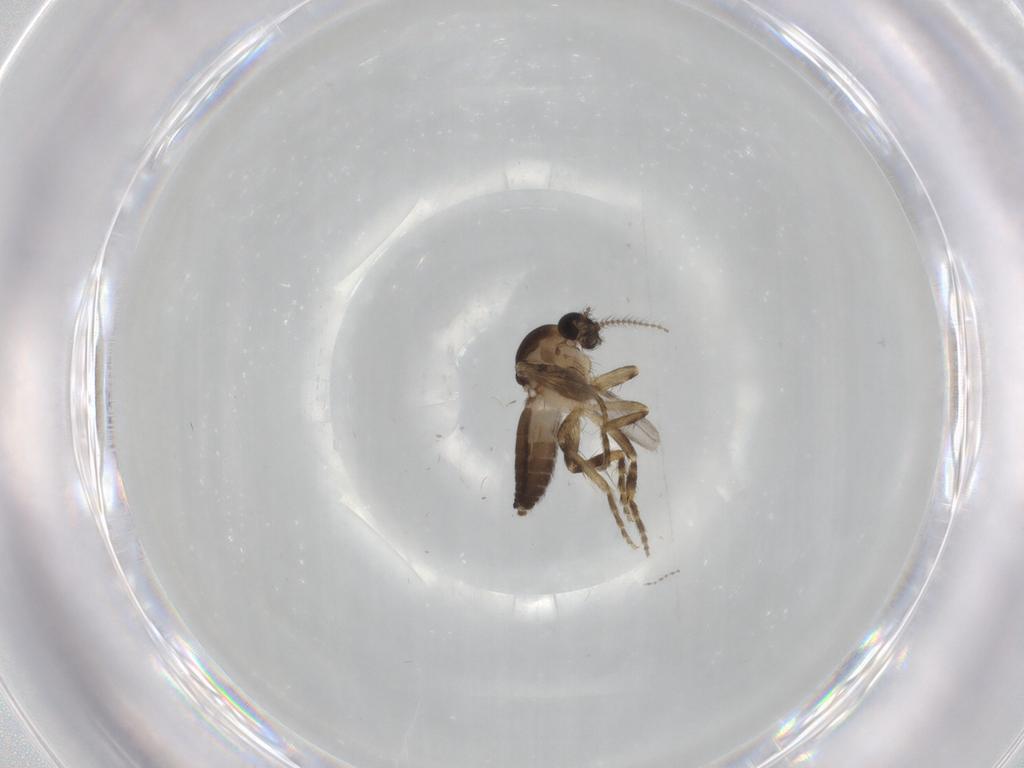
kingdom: Animalia
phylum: Arthropoda
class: Insecta
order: Diptera
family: Ceratopogonidae
